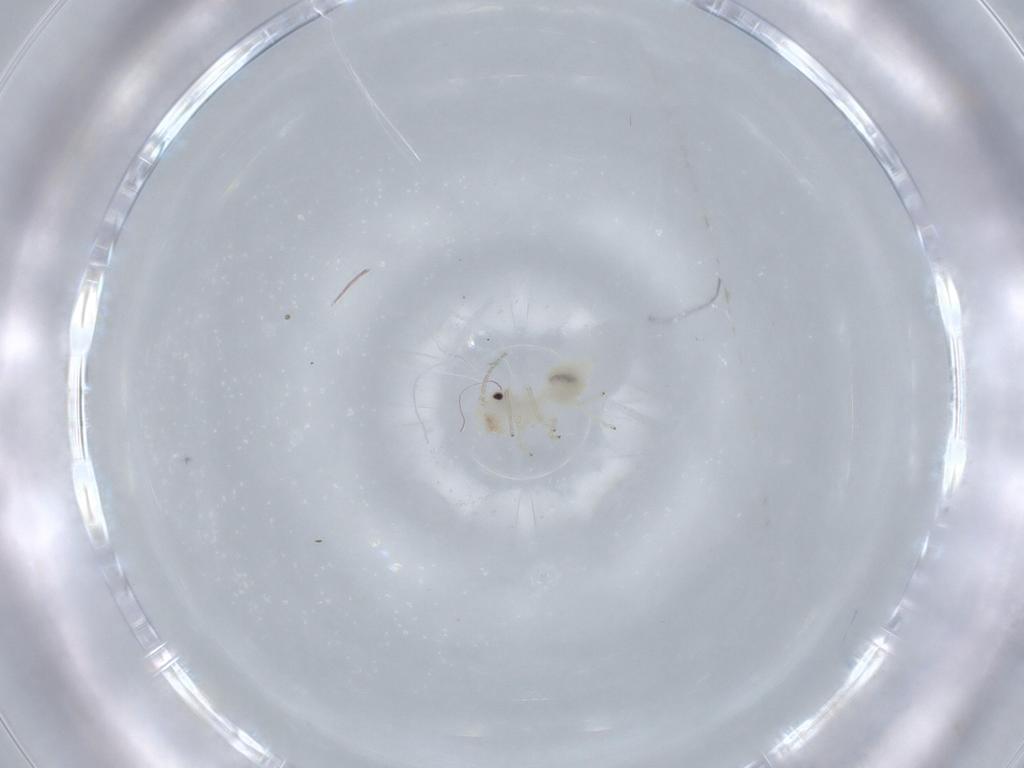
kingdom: Animalia
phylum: Arthropoda
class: Insecta
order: Psocodea
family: Caeciliusidae
